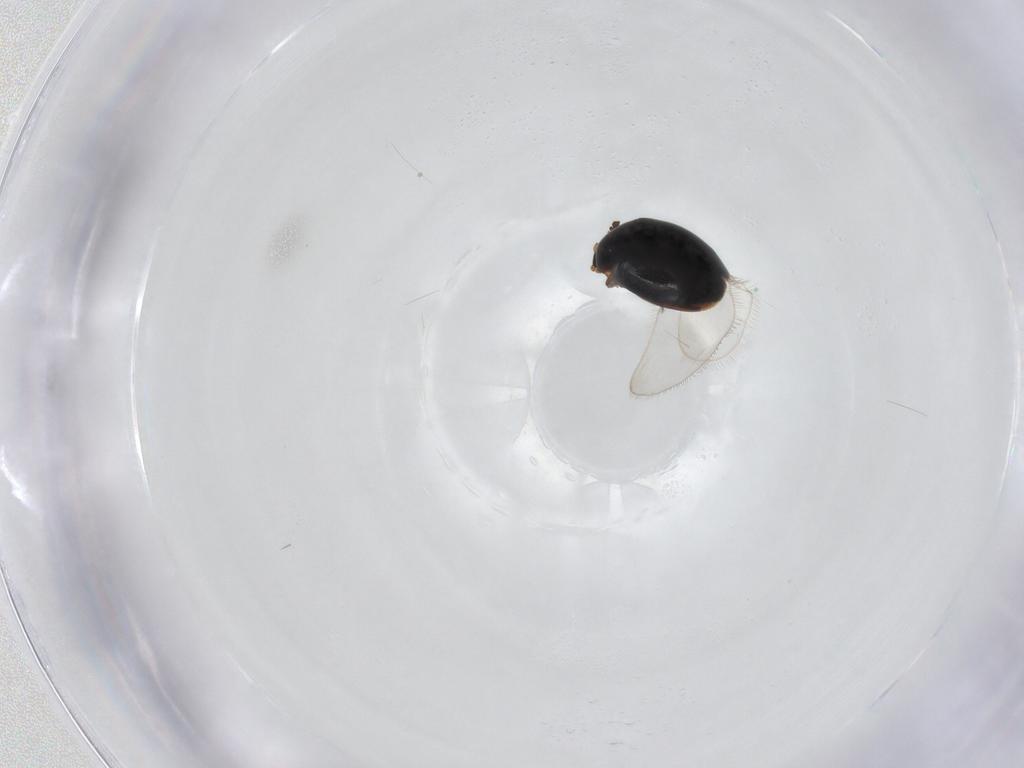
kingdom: Animalia
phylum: Arthropoda
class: Insecta
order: Coleoptera
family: Corylophidae
